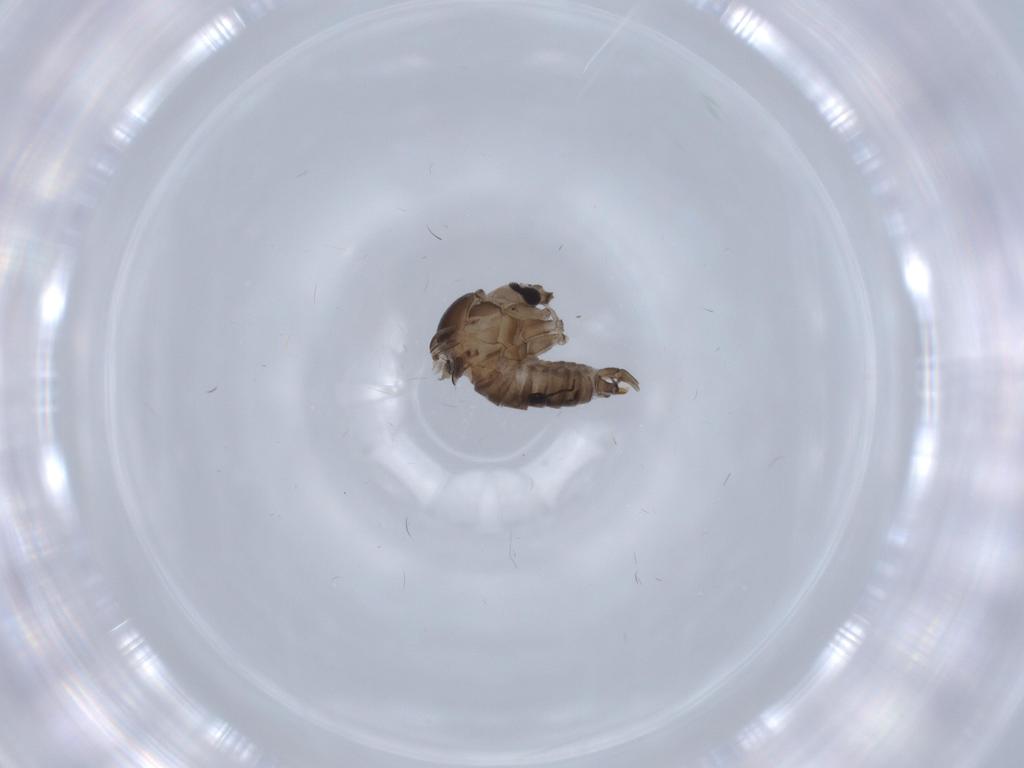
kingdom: Animalia
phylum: Arthropoda
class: Insecta
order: Diptera
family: Psychodidae
